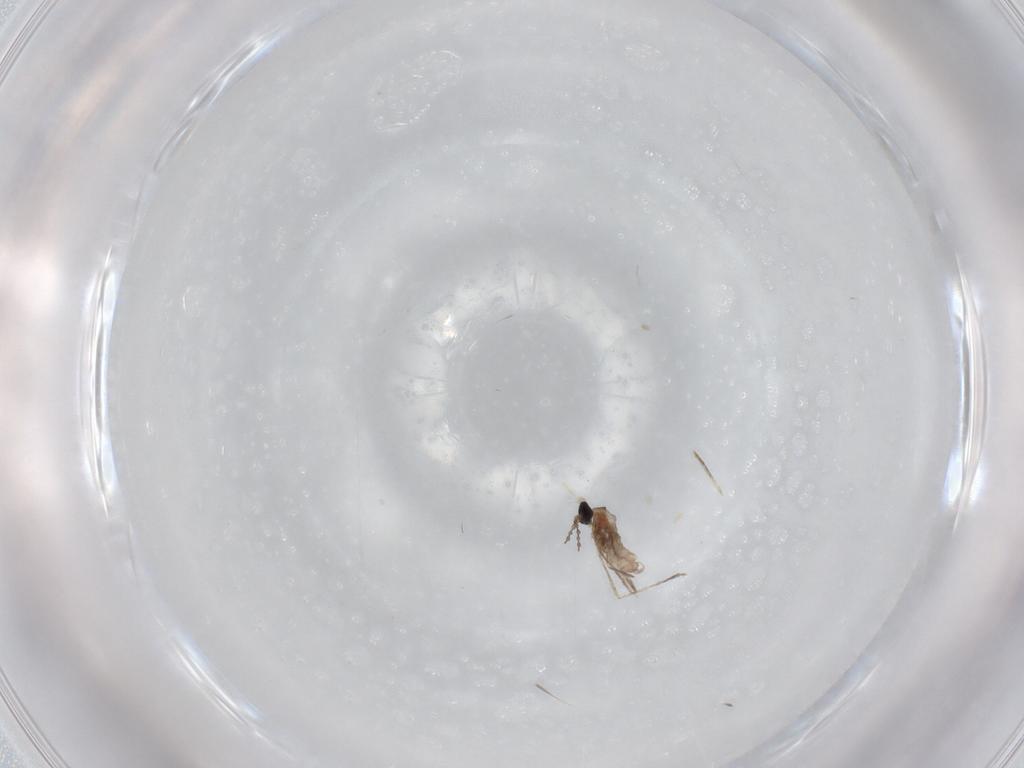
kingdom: Animalia
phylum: Arthropoda
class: Insecta
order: Diptera
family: Cecidomyiidae
